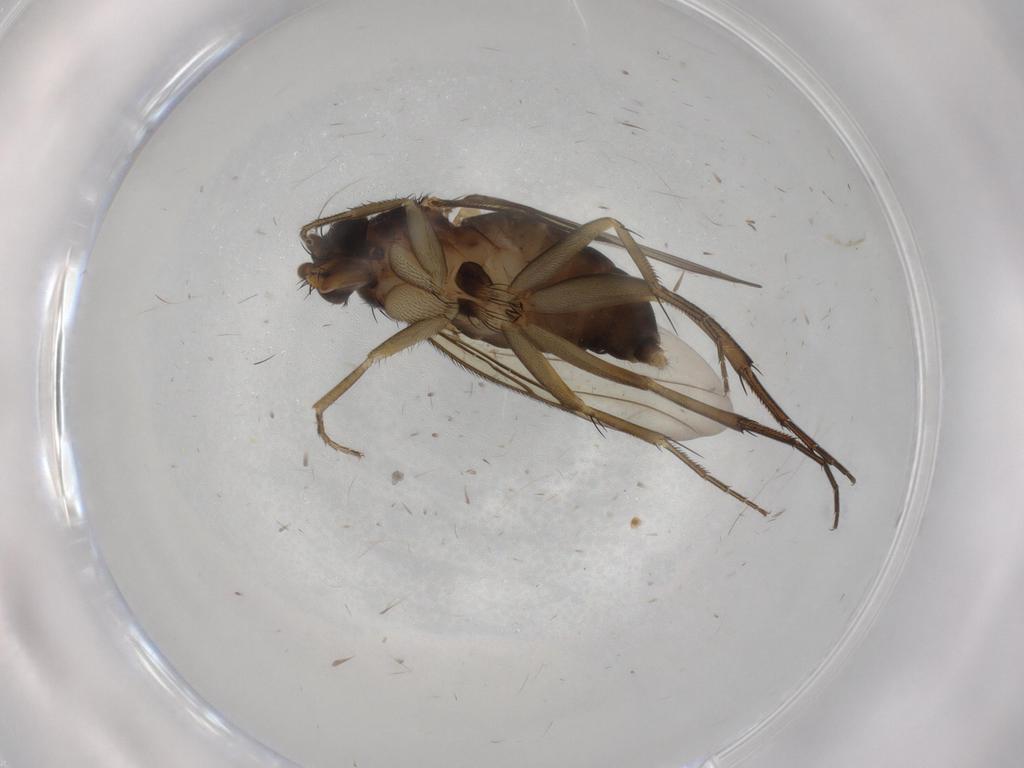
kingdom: Animalia
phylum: Arthropoda
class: Insecta
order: Diptera
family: Phoridae
